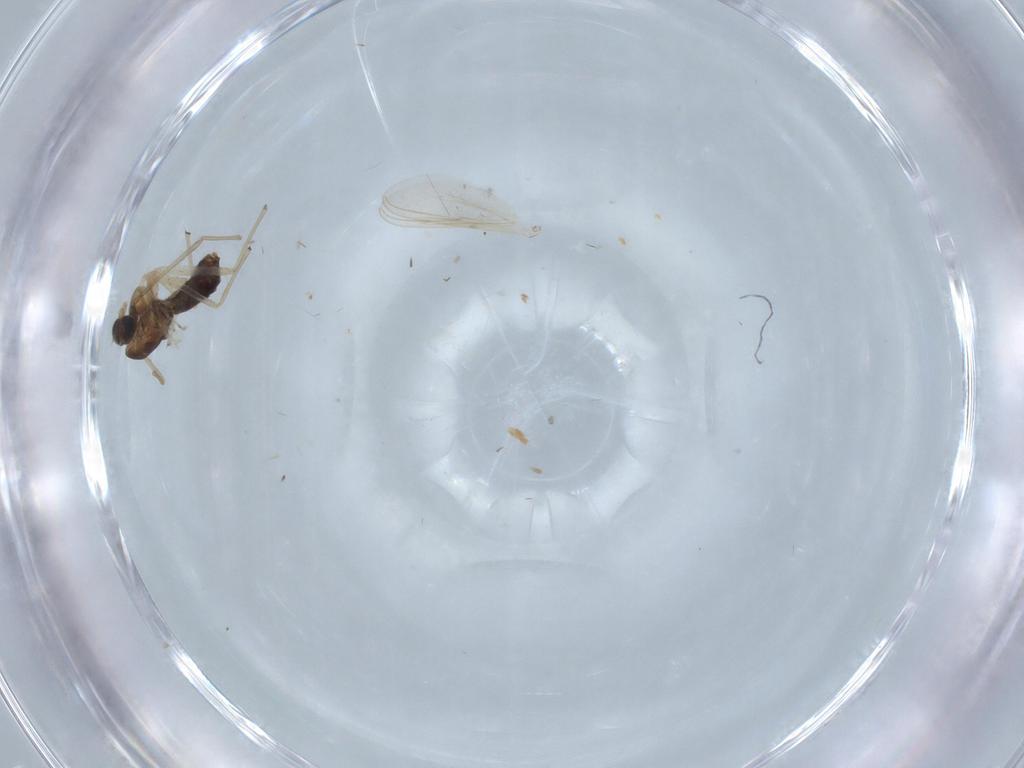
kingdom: Animalia
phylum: Arthropoda
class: Insecta
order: Diptera
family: Chironomidae
